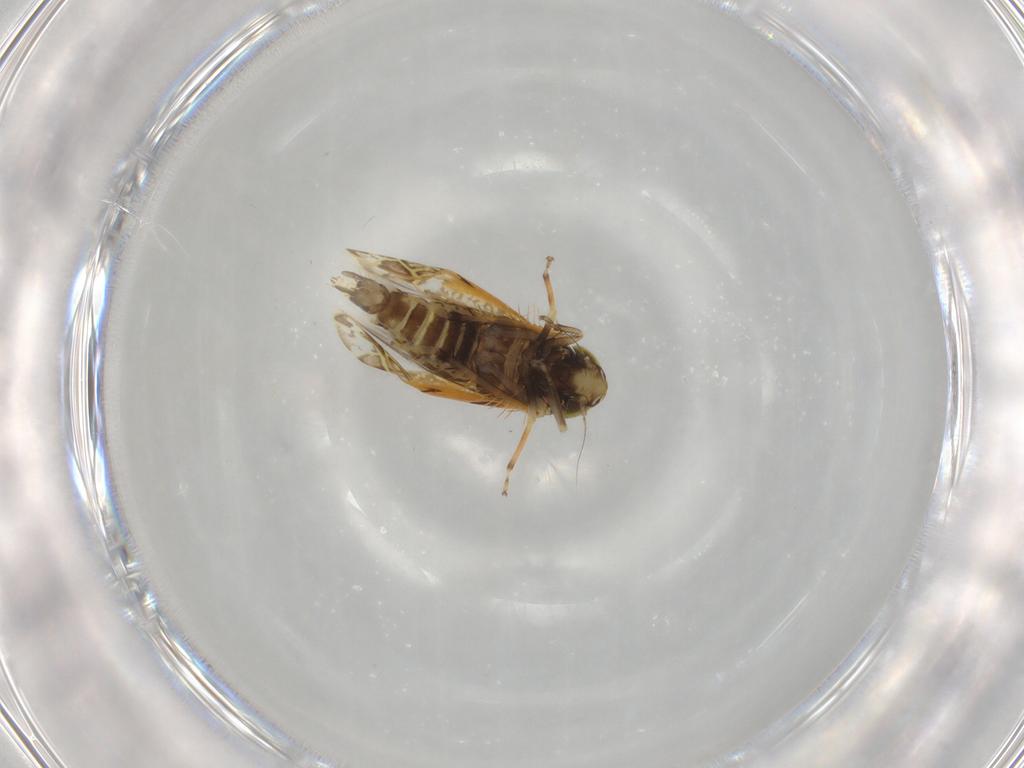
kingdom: Animalia
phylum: Arthropoda
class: Insecta
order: Hemiptera
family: Cicadellidae
